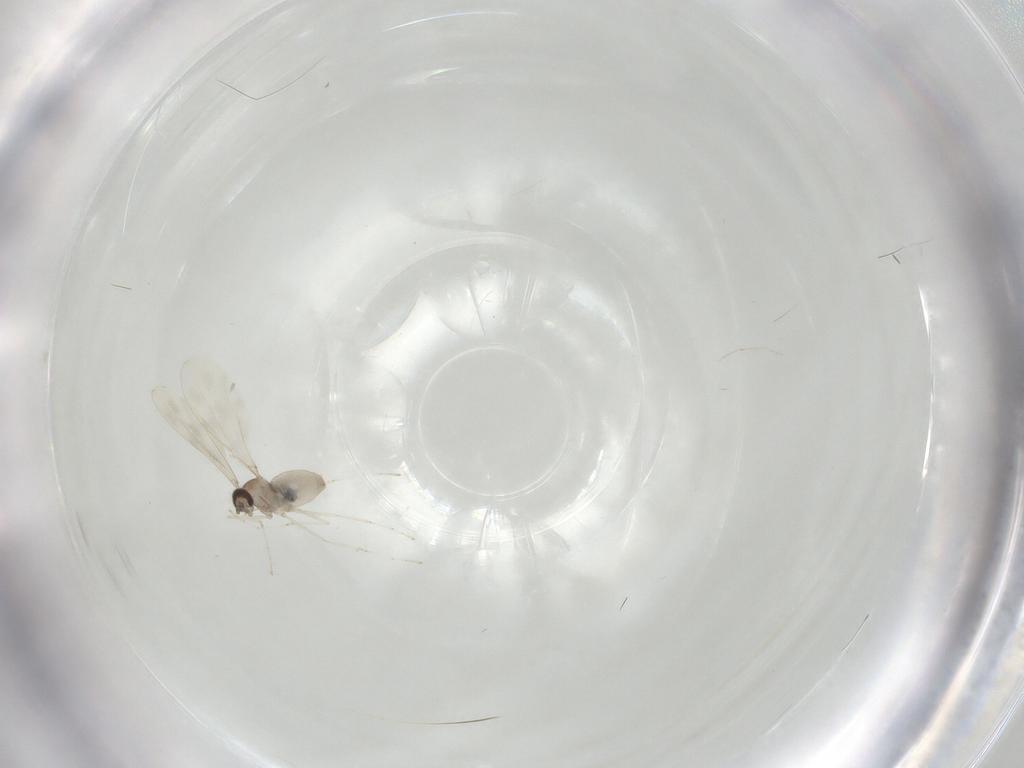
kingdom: Animalia
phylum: Arthropoda
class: Insecta
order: Diptera
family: Cecidomyiidae
